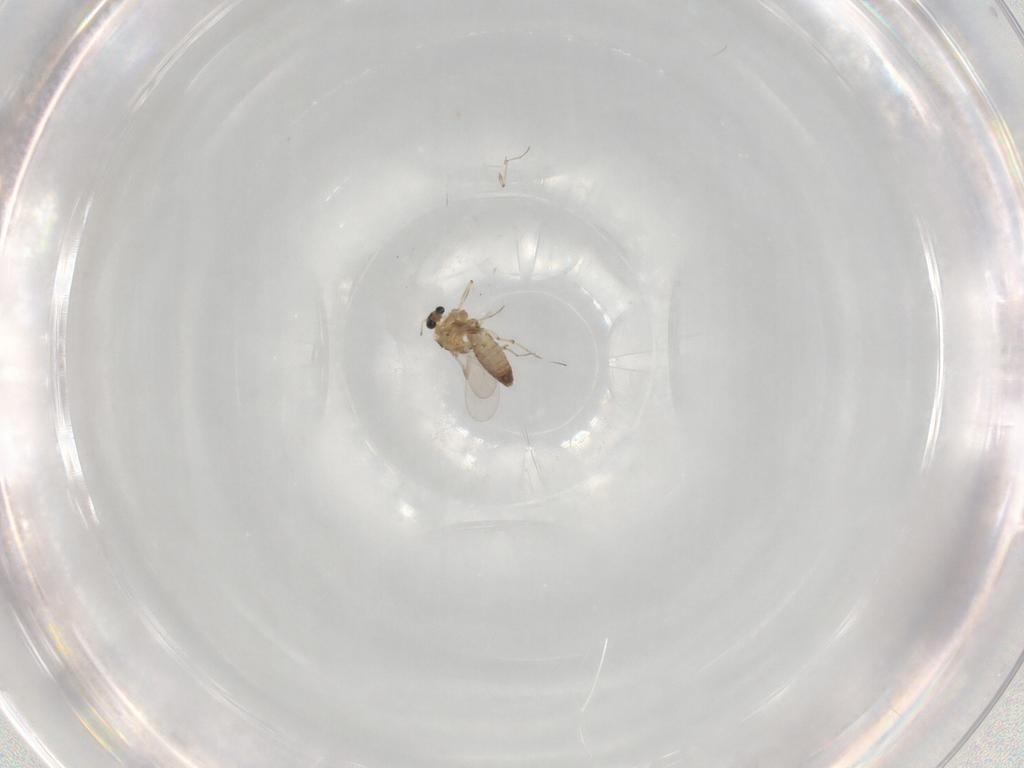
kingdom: Animalia
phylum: Arthropoda
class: Insecta
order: Diptera
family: Chironomidae
